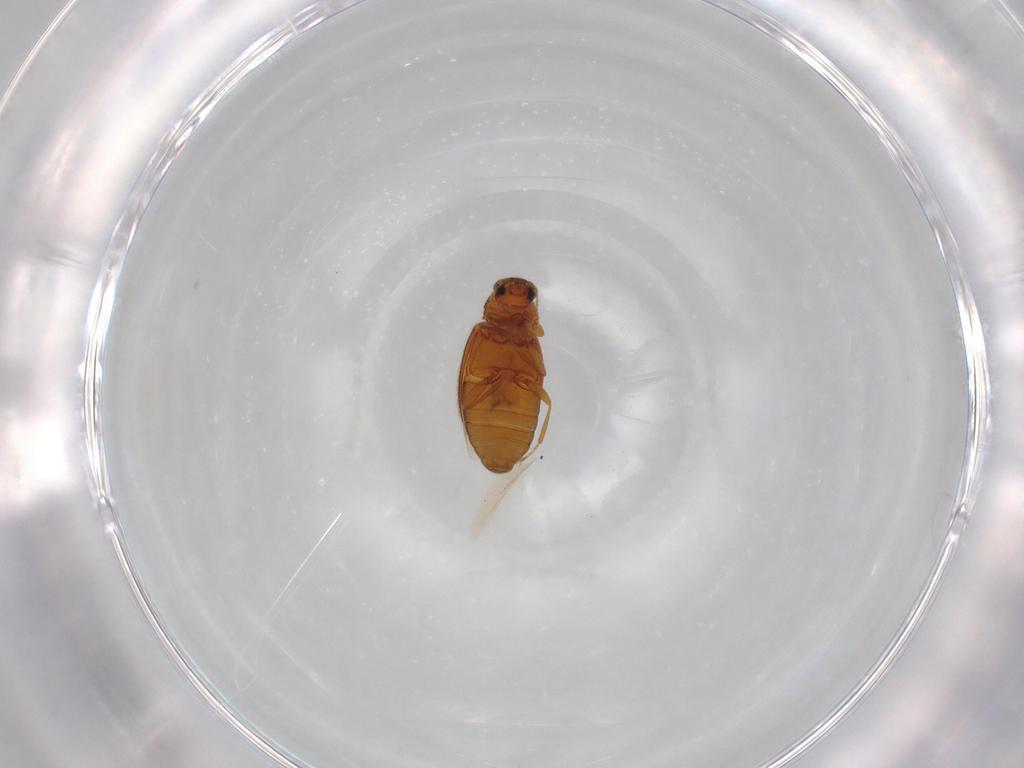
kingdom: Animalia
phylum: Arthropoda
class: Insecta
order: Coleoptera
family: Latridiidae
